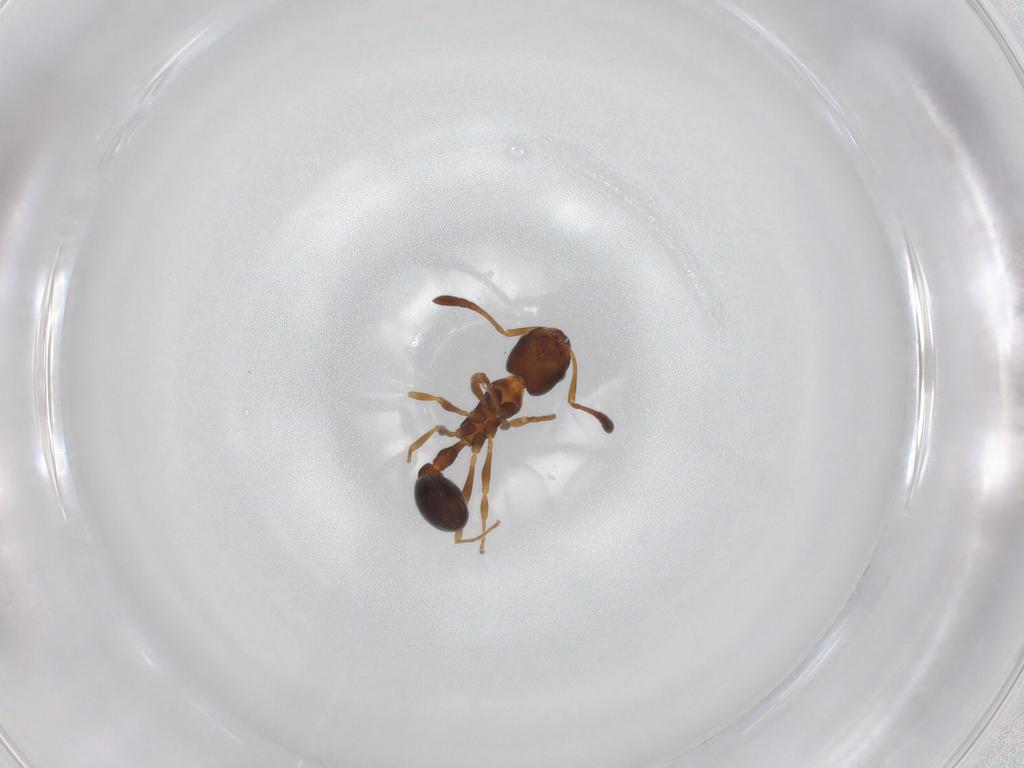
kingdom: Animalia
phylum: Arthropoda
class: Insecta
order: Hymenoptera
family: Formicidae
